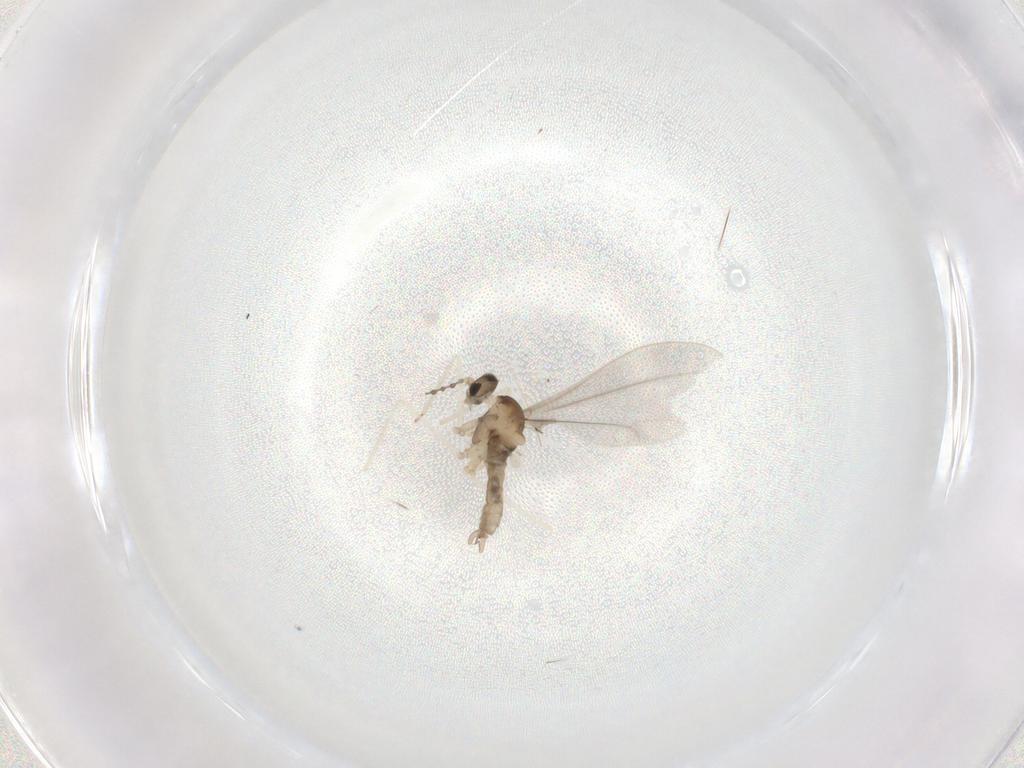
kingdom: Animalia
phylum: Arthropoda
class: Insecta
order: Diptera
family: Cecidomyiidae
